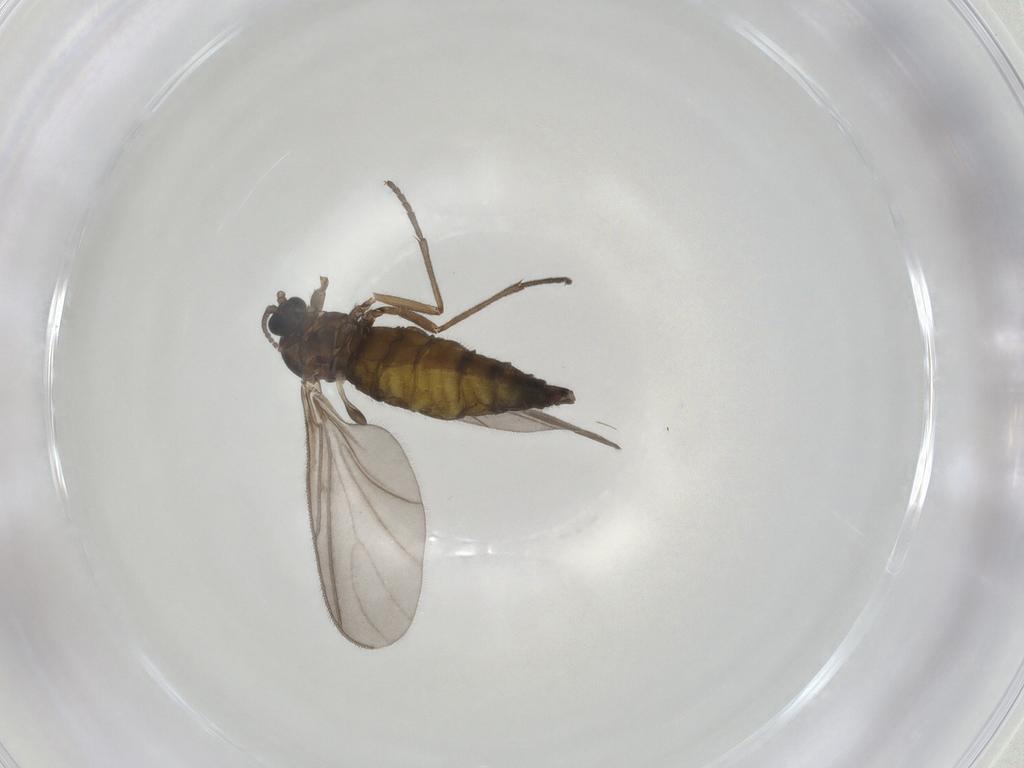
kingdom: Animalia
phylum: Arthropoda
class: Insecta
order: Diptera
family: Sciaridae
